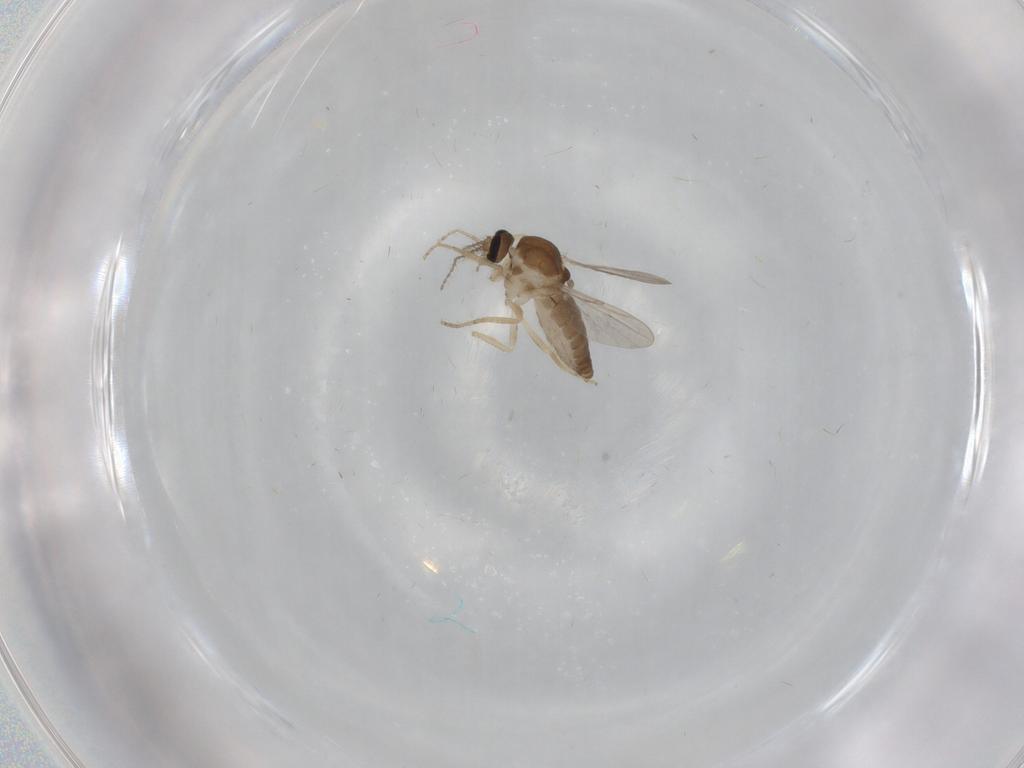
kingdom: Animalia
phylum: Arthropoda
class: Insecta
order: Diptera
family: Ceratopogonidae
